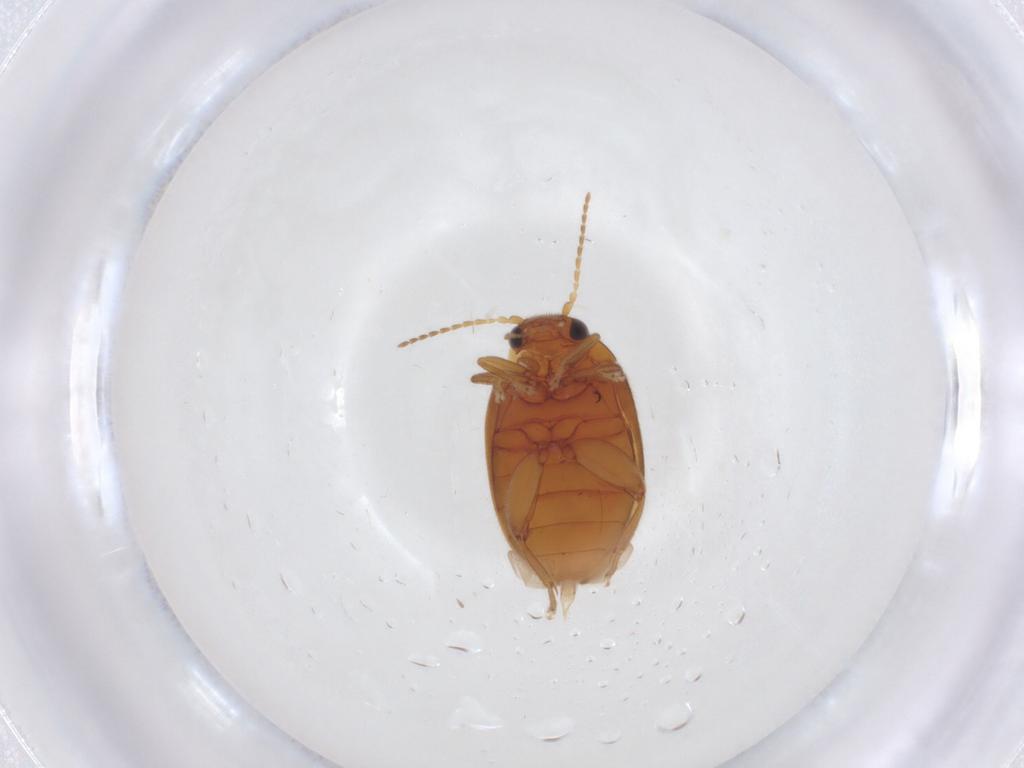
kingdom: Animalia
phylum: Arthropoda
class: Insecta
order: Coleoptera
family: Scirtidae
